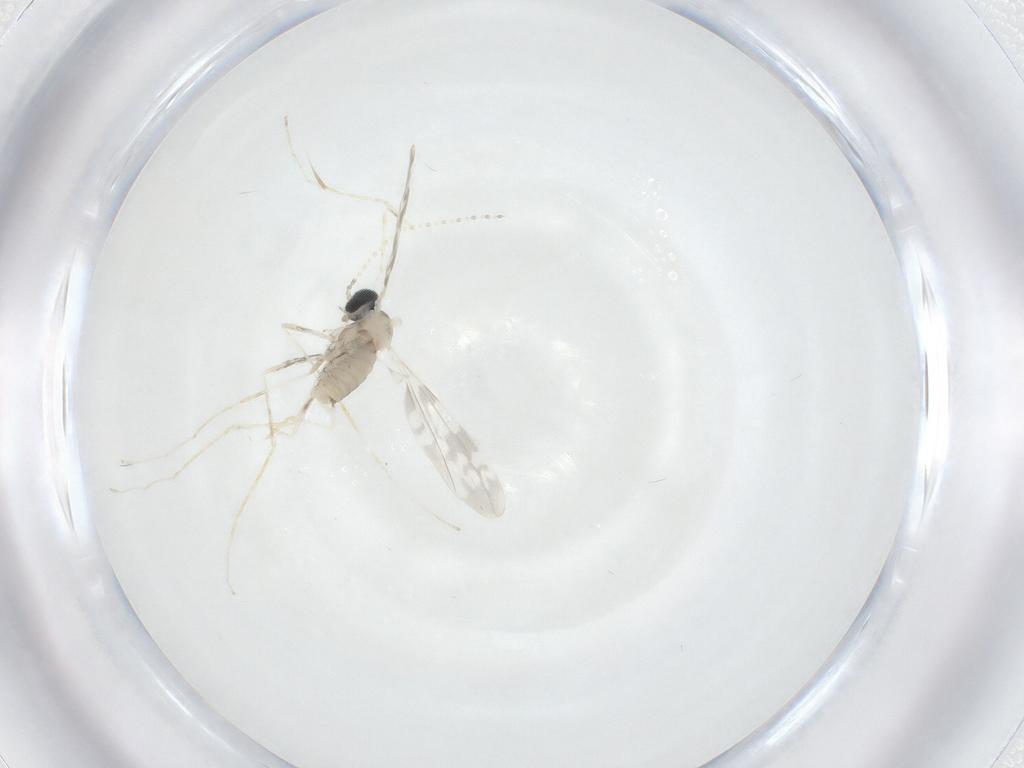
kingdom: Animalia
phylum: Arthropoda
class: Insecta
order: Diptera
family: Cecidomyiidae
